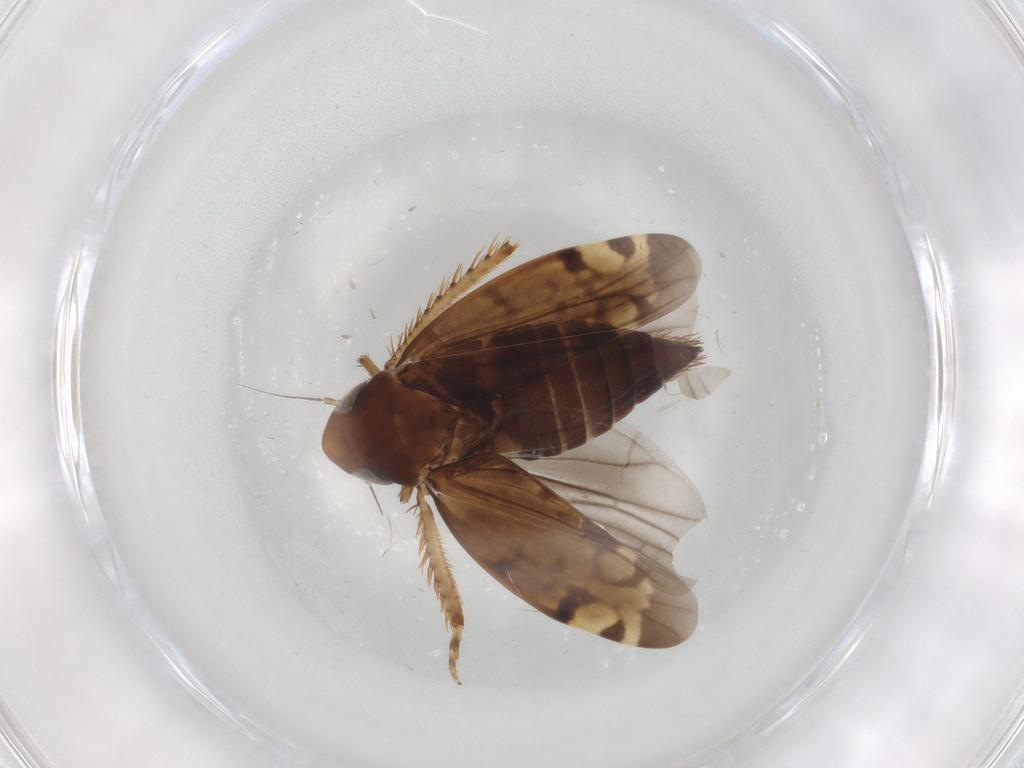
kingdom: Animalia
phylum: Arthropoda
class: Insecta
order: Hemiptera
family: Cicadellidae
